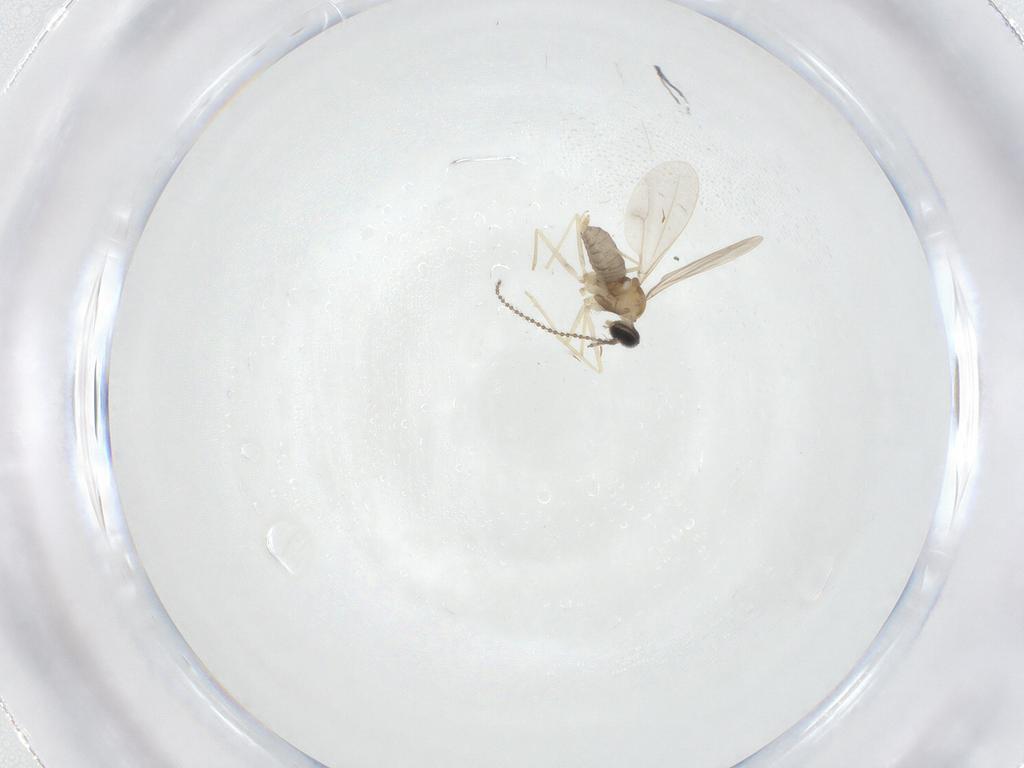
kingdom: Animalia
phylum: Arthropoda
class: Insecta
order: Diptera
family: Cecidomyiidae
